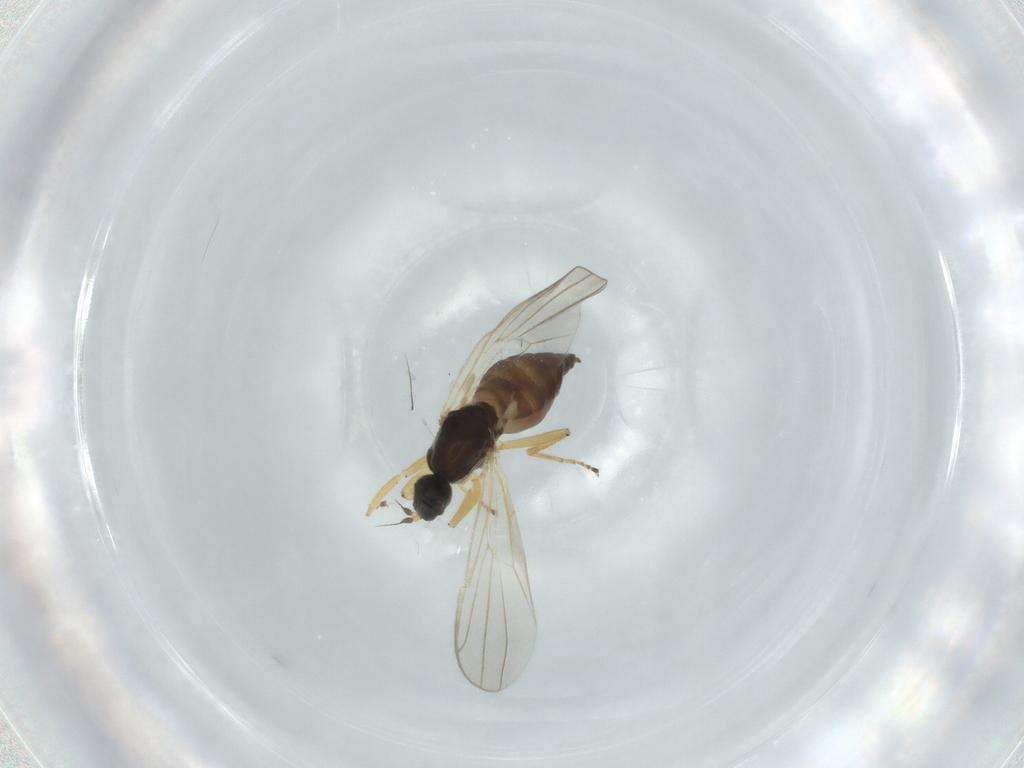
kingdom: Animalia
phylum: Arthropoda
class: Insecta
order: Diptera
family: Chironomidae
